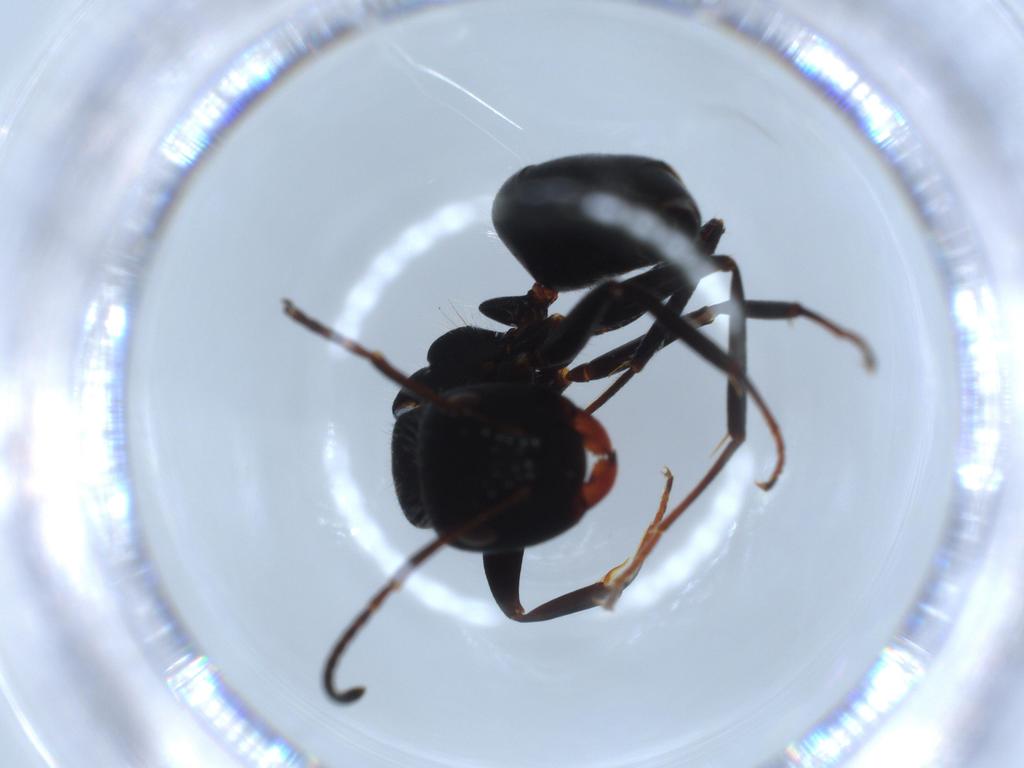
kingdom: Animalia
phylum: Arthropoda
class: Insecta
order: Hymenoptera
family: Formicidae
